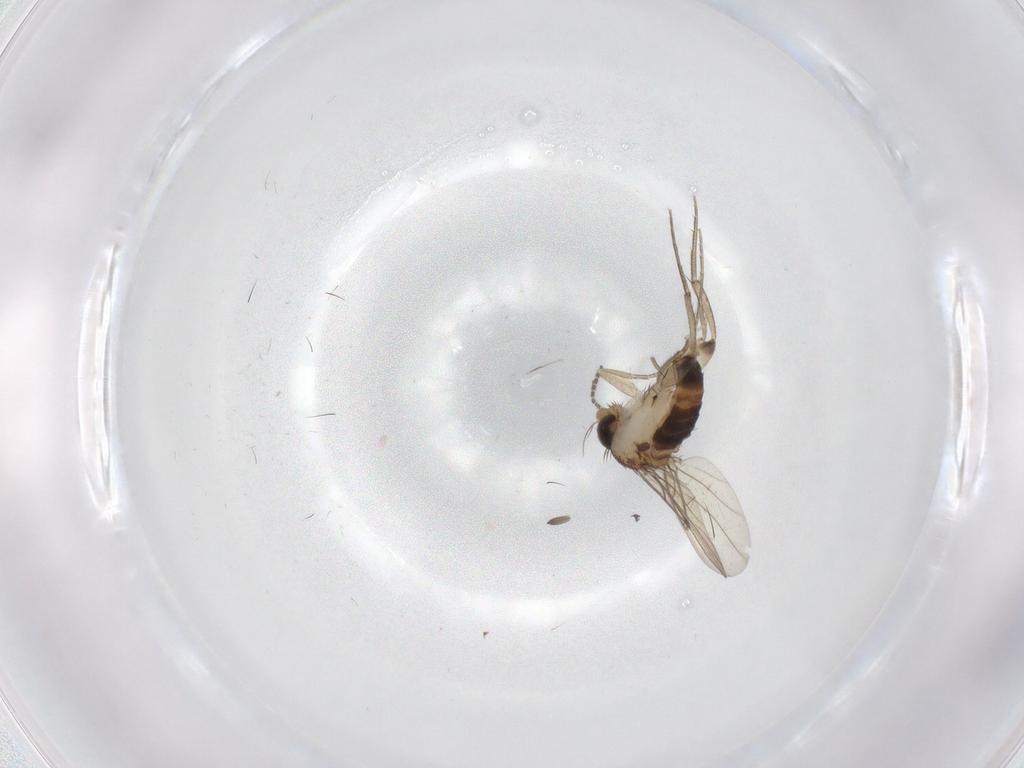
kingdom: Animalia
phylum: Arthropoda
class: Insecta
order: Diptera
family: Phoridae
